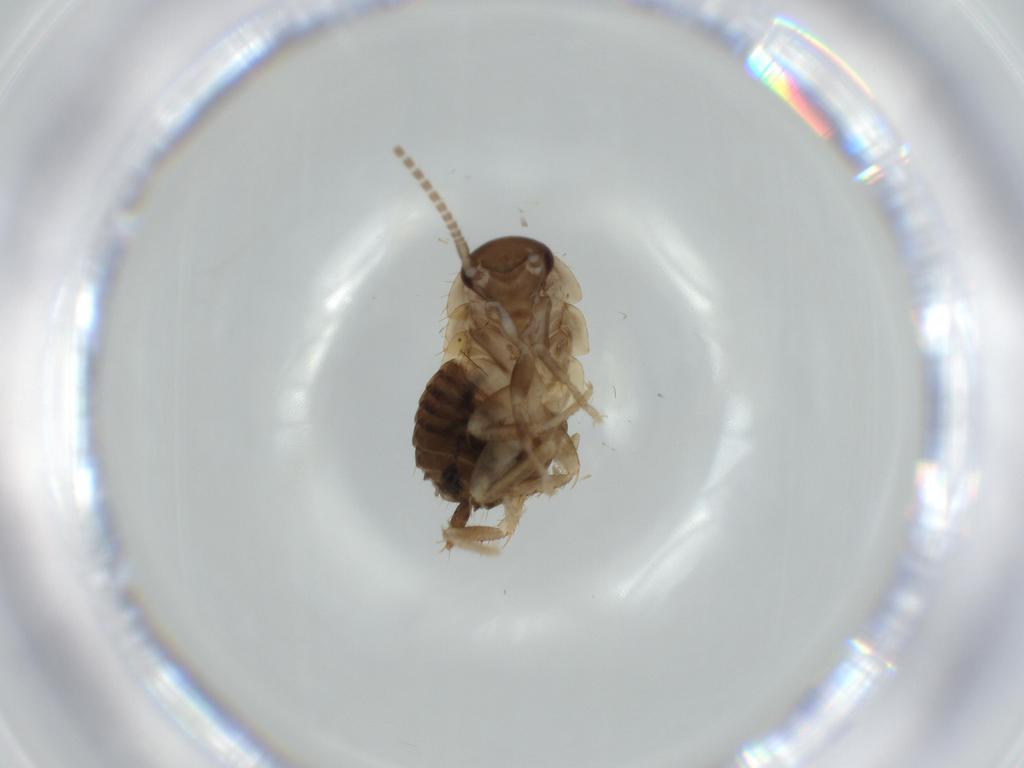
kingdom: Animalia
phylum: Arthropoda
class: Insecta
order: Blattodea
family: Ectobiidae
